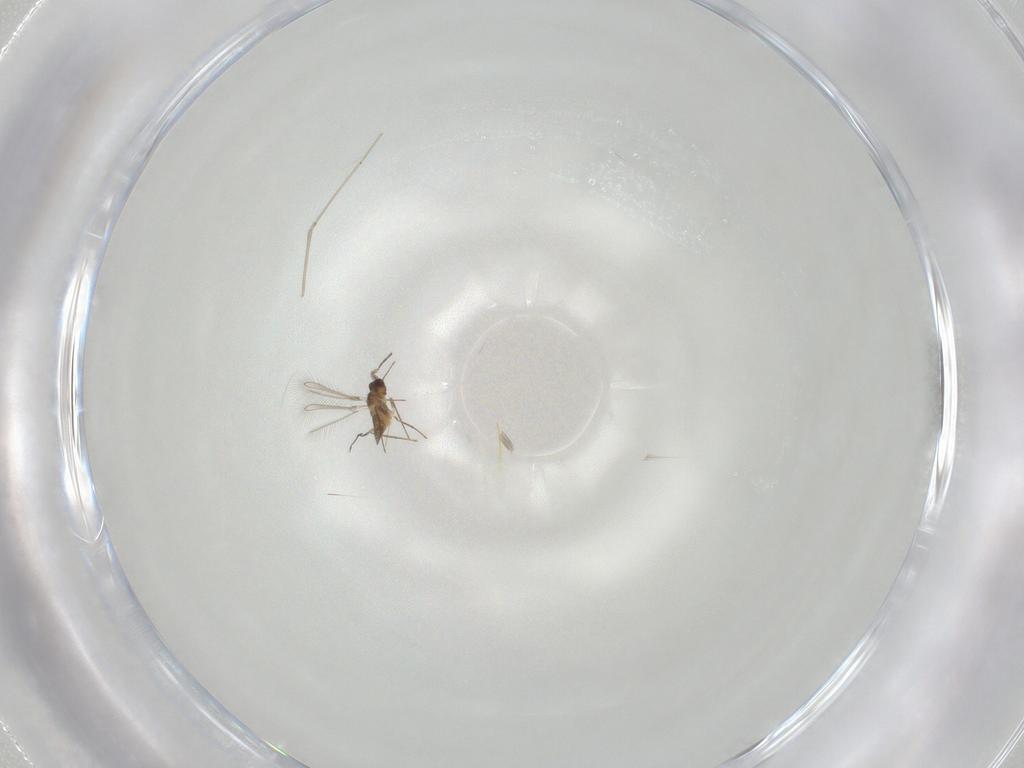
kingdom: Animalia
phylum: Arthropoda
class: Insecta
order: Hymenoptera
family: Mymaridae
